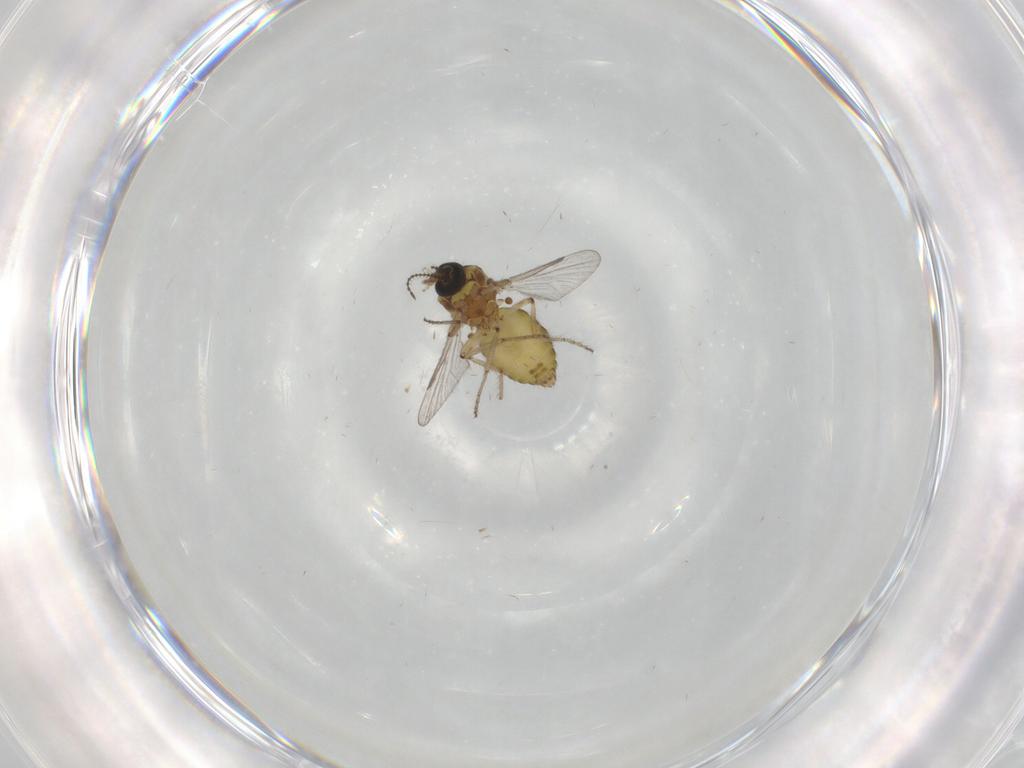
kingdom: Animalia
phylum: Arthropoda
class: Insecta
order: Diptera
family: Ceratopogonidae
